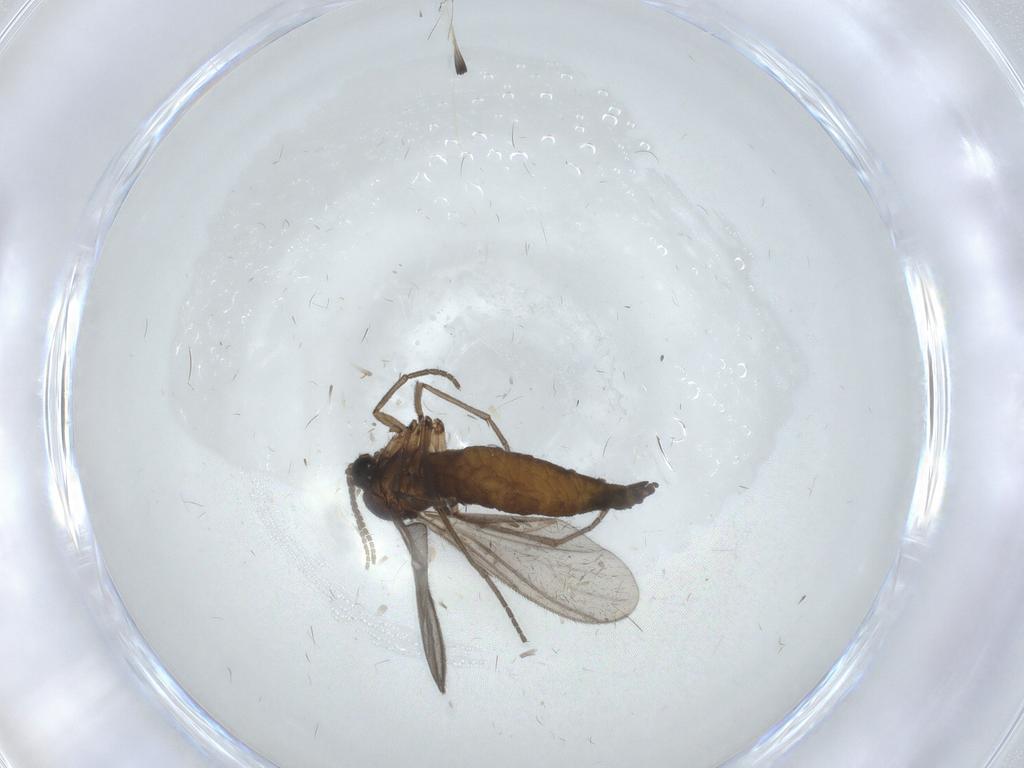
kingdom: Animalia
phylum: Arthropoda
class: Insecta
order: Diptera
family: Sciaridae
